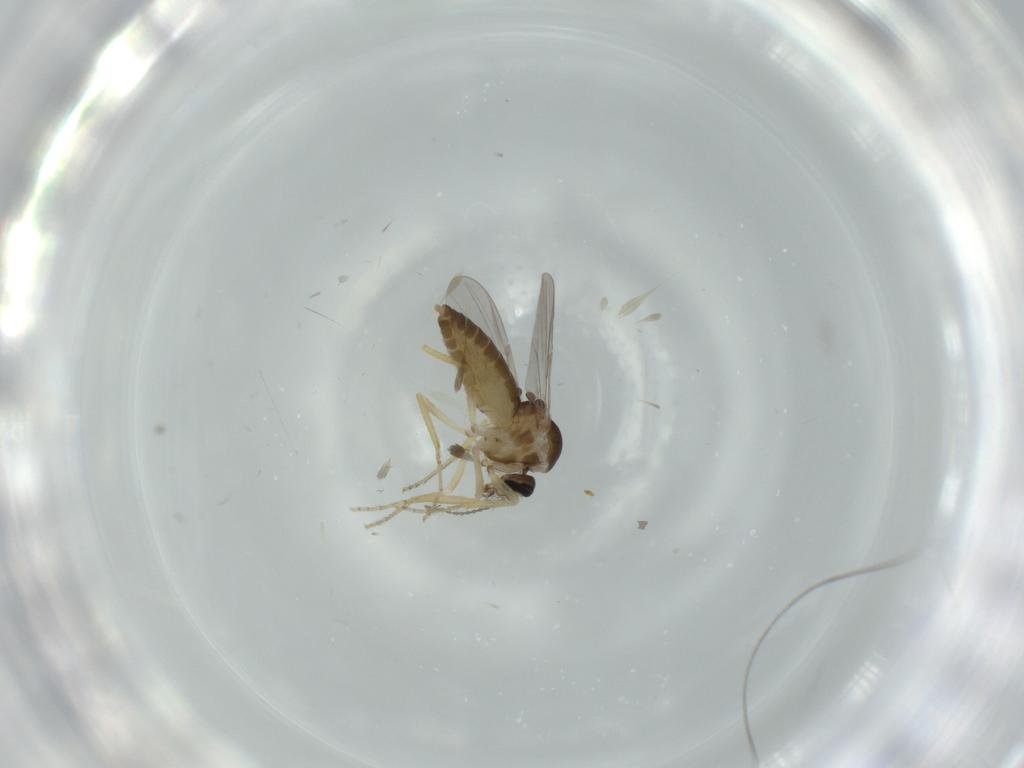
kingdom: Animalia
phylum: Arthropoda
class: Insecta
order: Diptera
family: Ceratopogonidae
